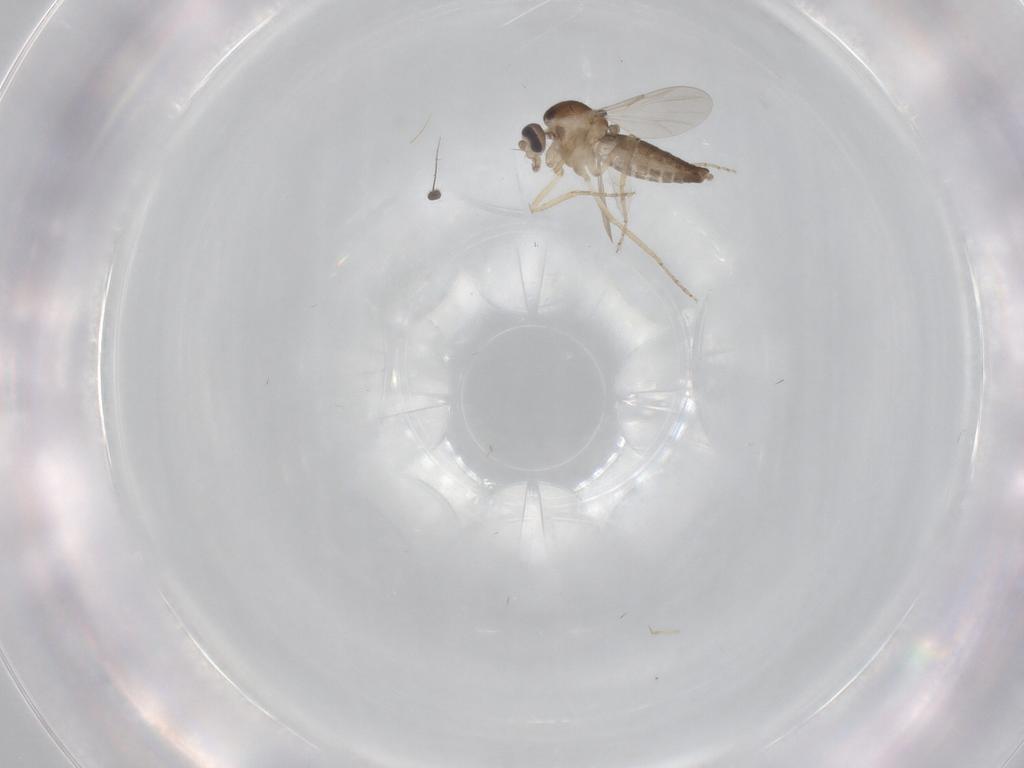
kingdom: Animalia
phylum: Arthropoda
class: Insecta
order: Diptera
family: Ceratopogonidae
